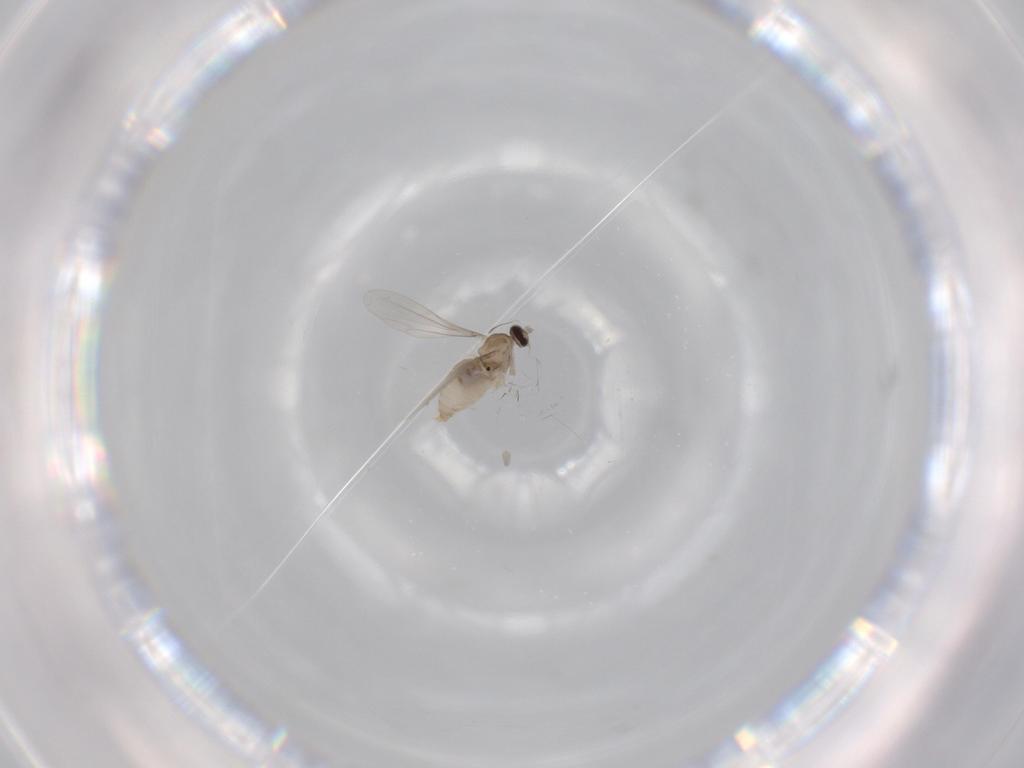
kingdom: Animalia
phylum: Arthropoda
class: Insecta
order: Diptera
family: Cecidomyiidae
